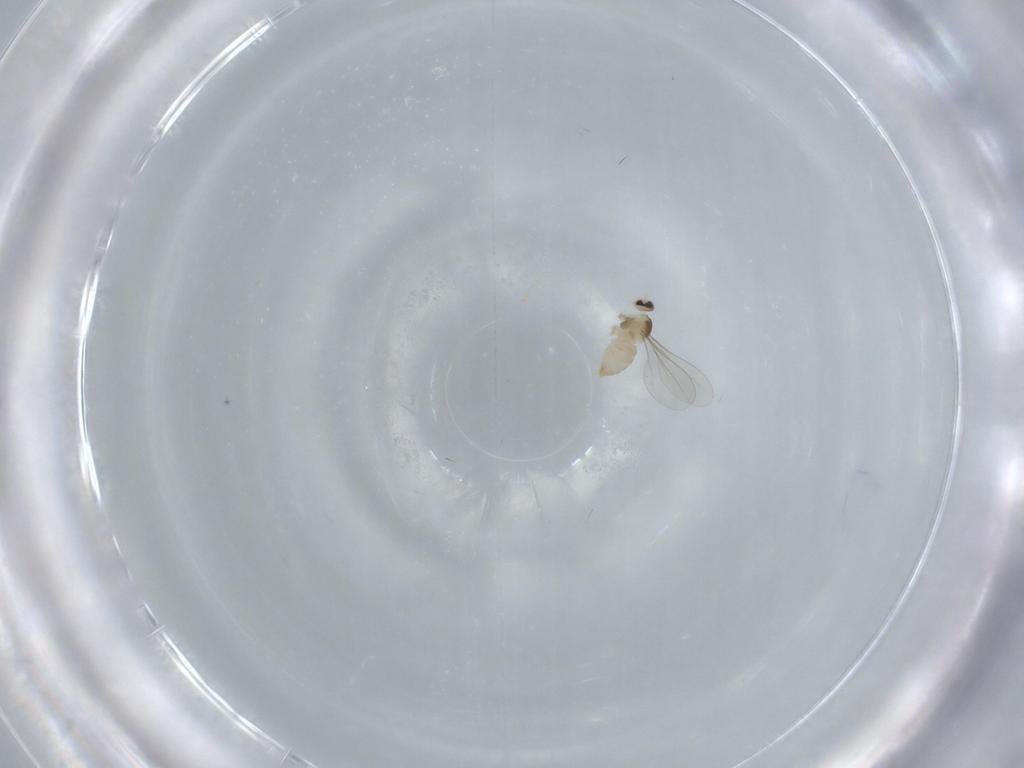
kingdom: Animalia
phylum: Arthropoda
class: Insecta
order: Diptera
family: Cecidomyiidae
